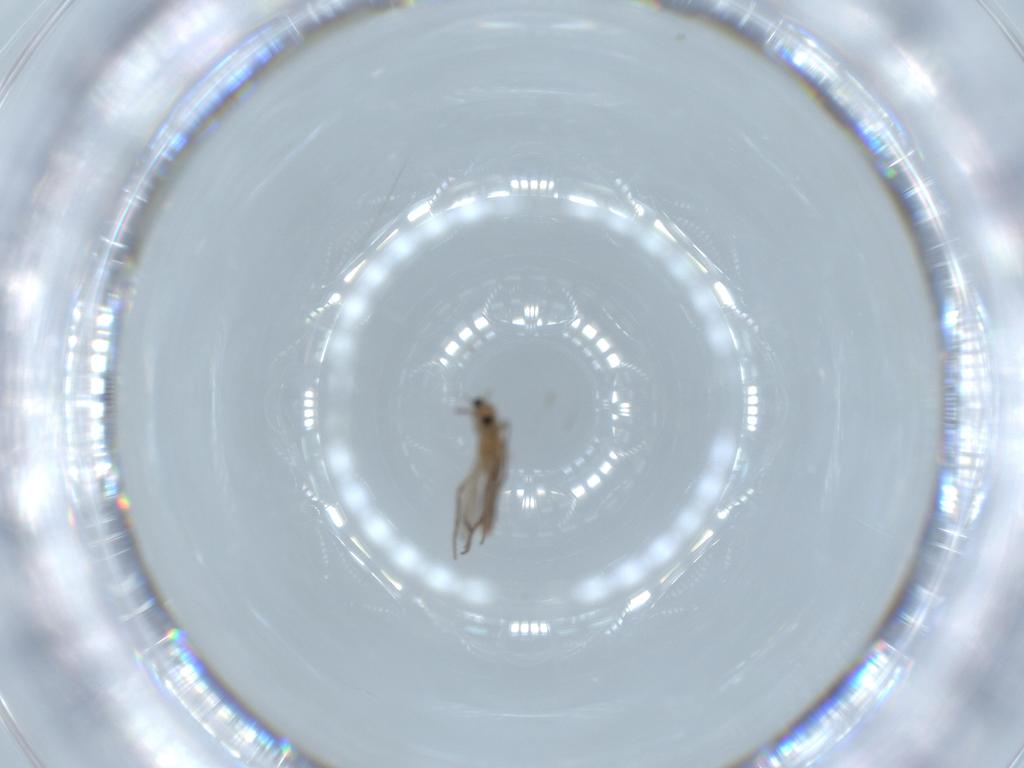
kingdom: Animalia
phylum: Arthropoda
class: Insecta
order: Diptera
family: Chironomidae
